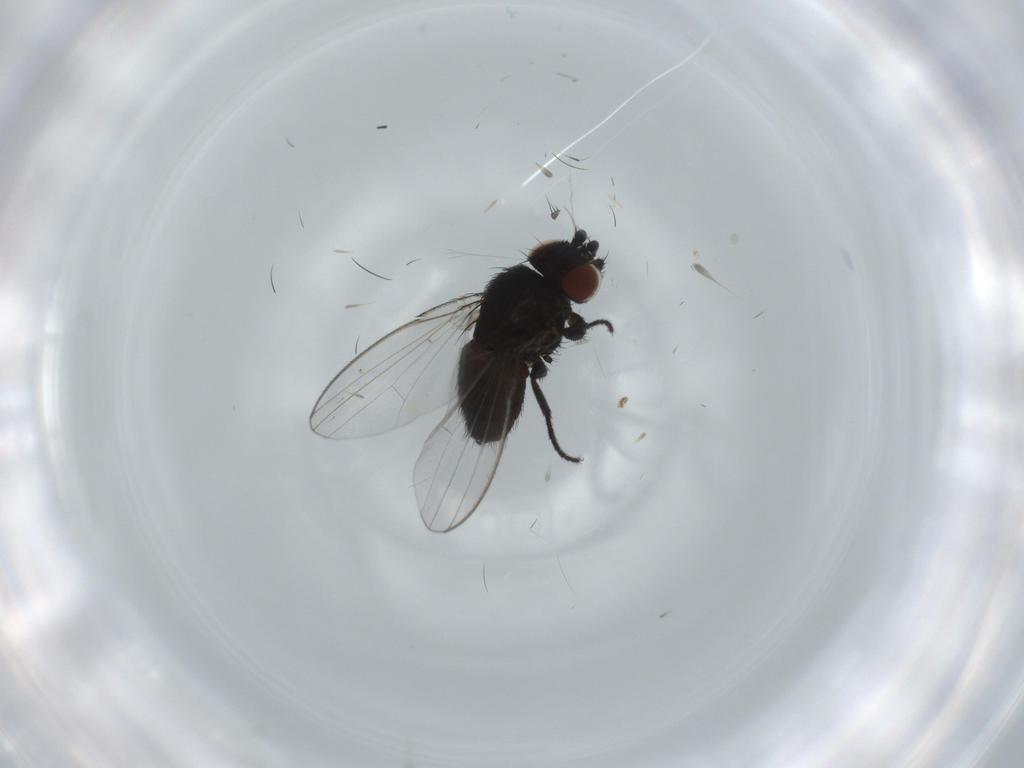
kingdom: Animalia
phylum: Arthropoda
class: Insecta
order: Diptera
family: Milichiidae
